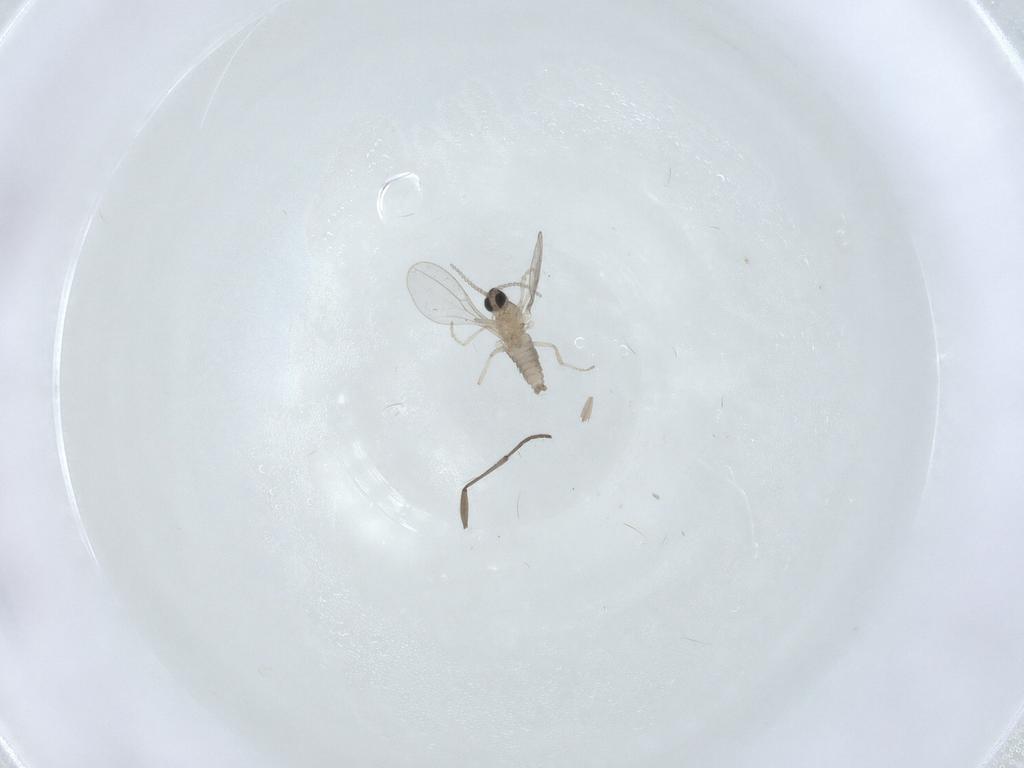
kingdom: Animalia
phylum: Arthropoda
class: Insecta
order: Diptera
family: Cecidomyiidae
